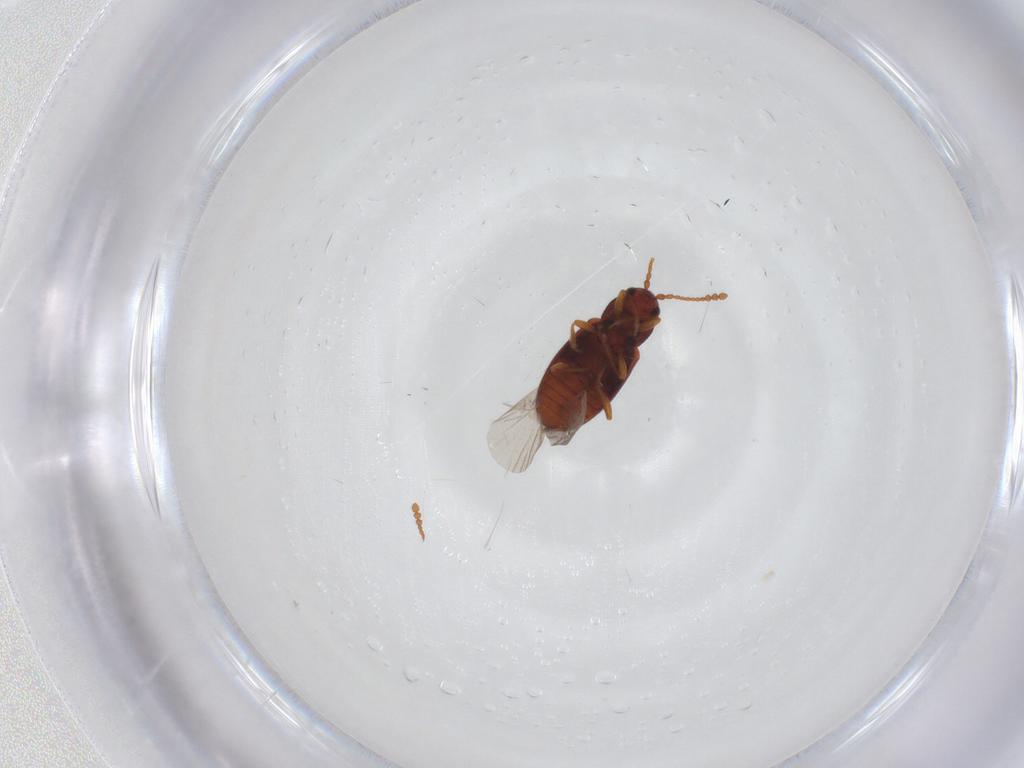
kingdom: Animalia
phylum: Arthropoda
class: Insecta
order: Coleoptera
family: Cryptophagidae
